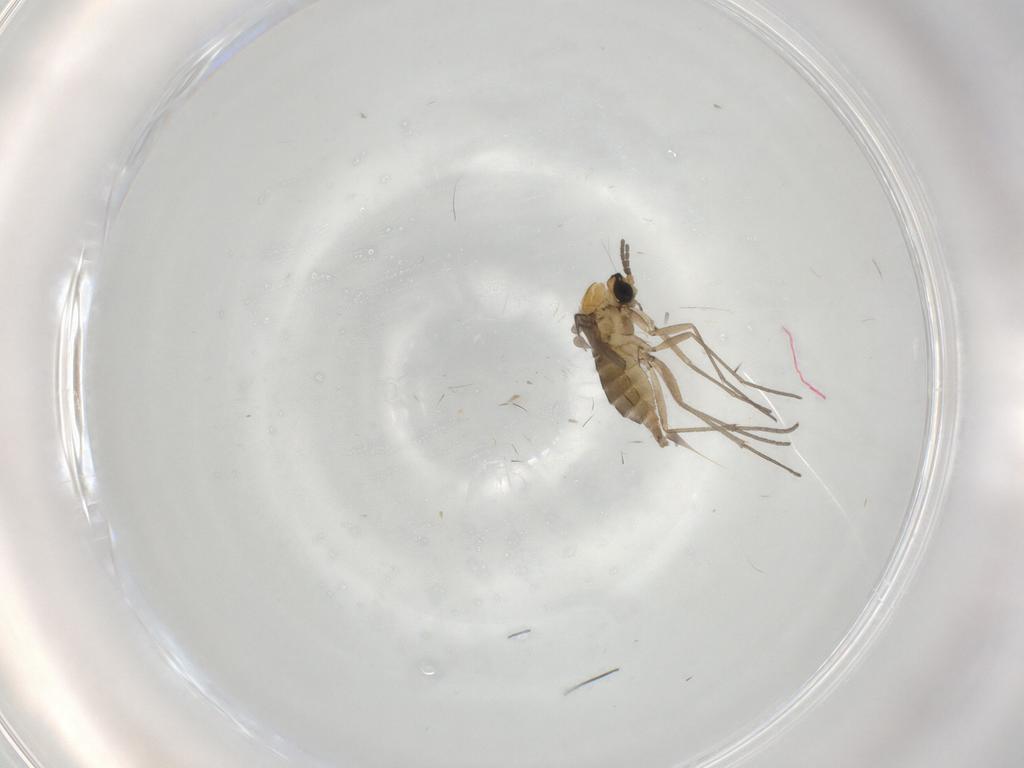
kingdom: Animalia
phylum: Arthropoda
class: Insecta
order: Diptera
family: Sciaridae
